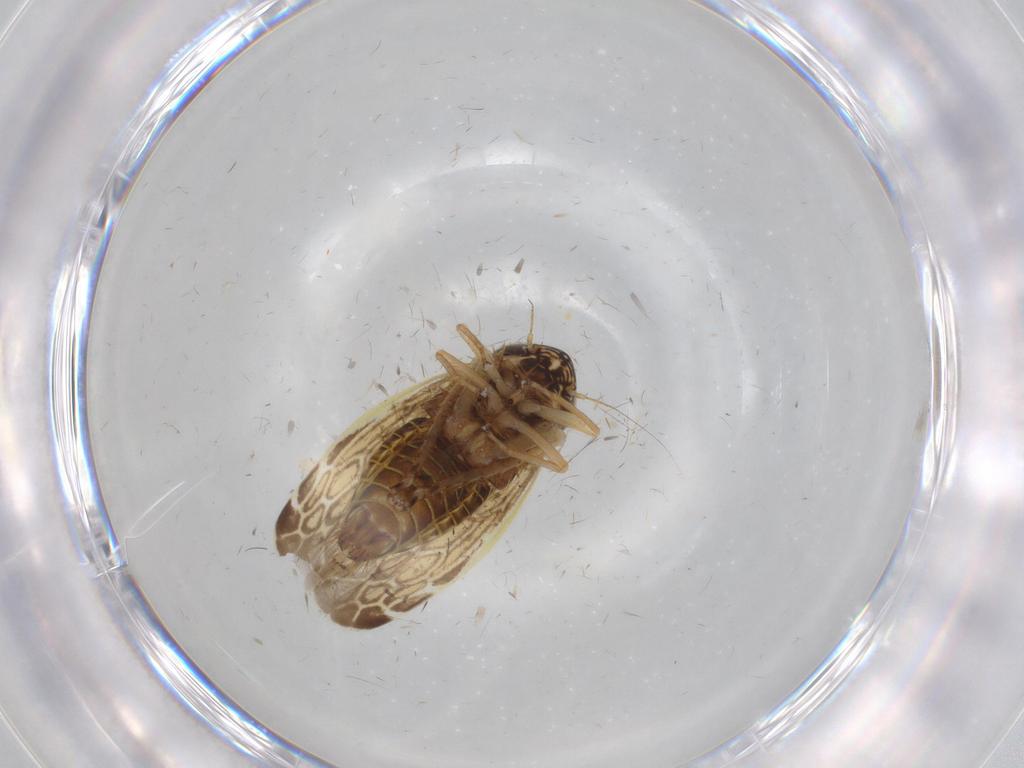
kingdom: Animalia
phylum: Arthropoda
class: Insecta
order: Hemiptera
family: Cicadellidae
